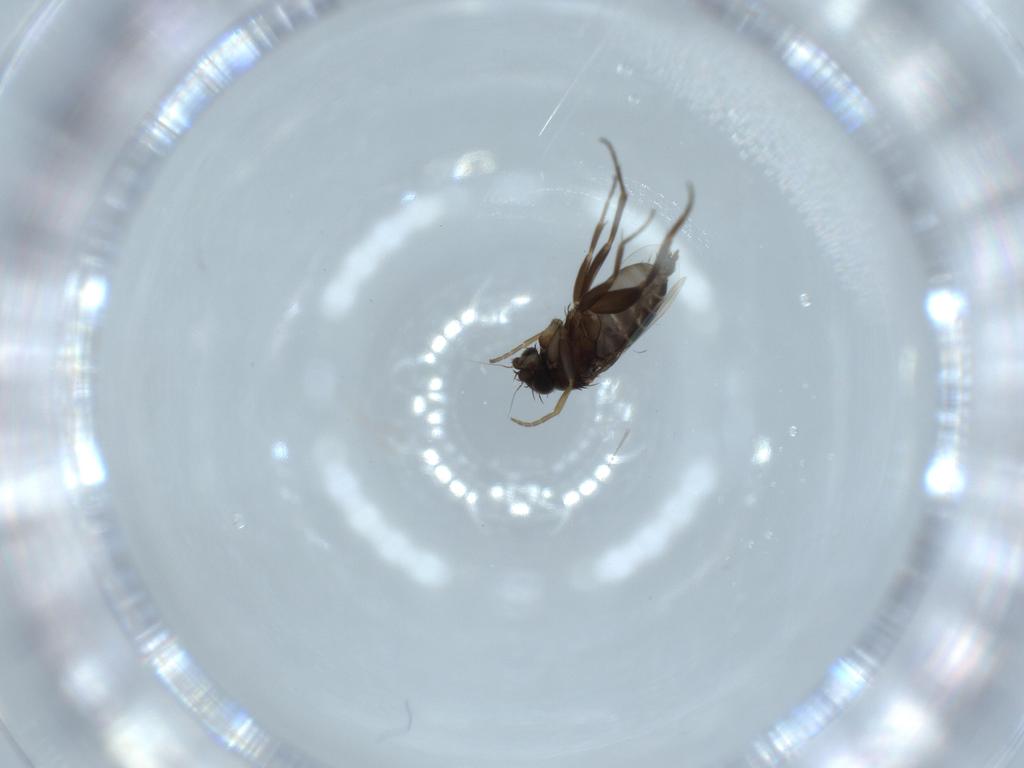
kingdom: Animalia
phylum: Arthropoda
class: Insecta
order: Diptera
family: Phoridae
